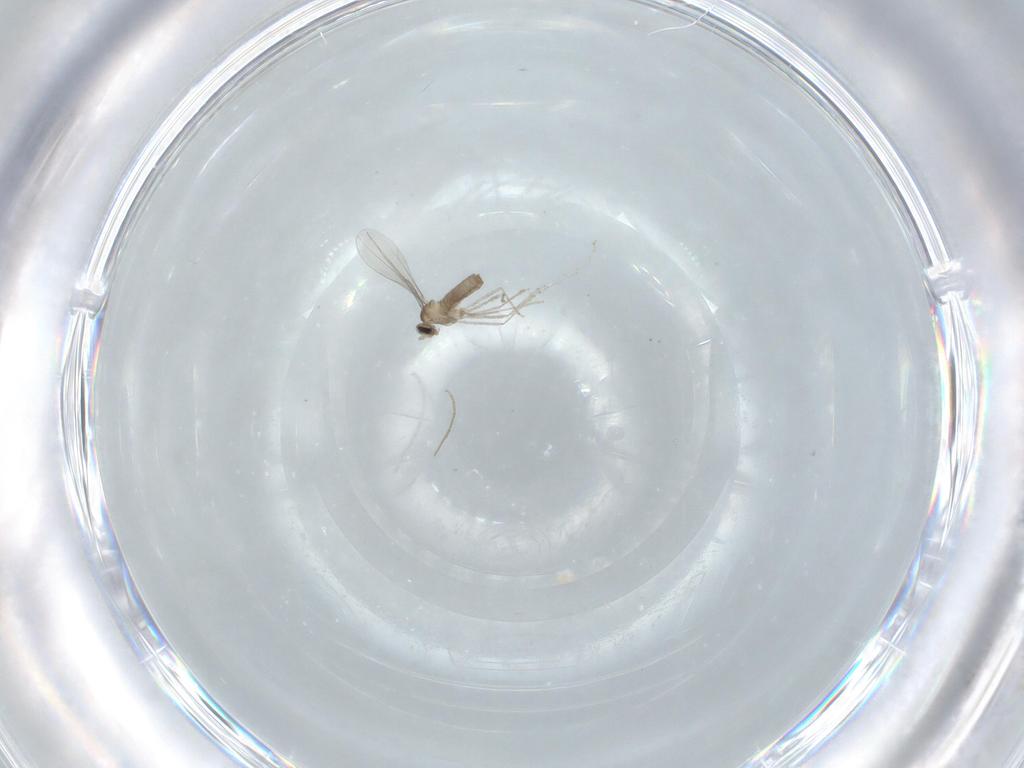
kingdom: Animalia
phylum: Arthropoda
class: Insecta
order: Diptera
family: Cecidomyiidae
